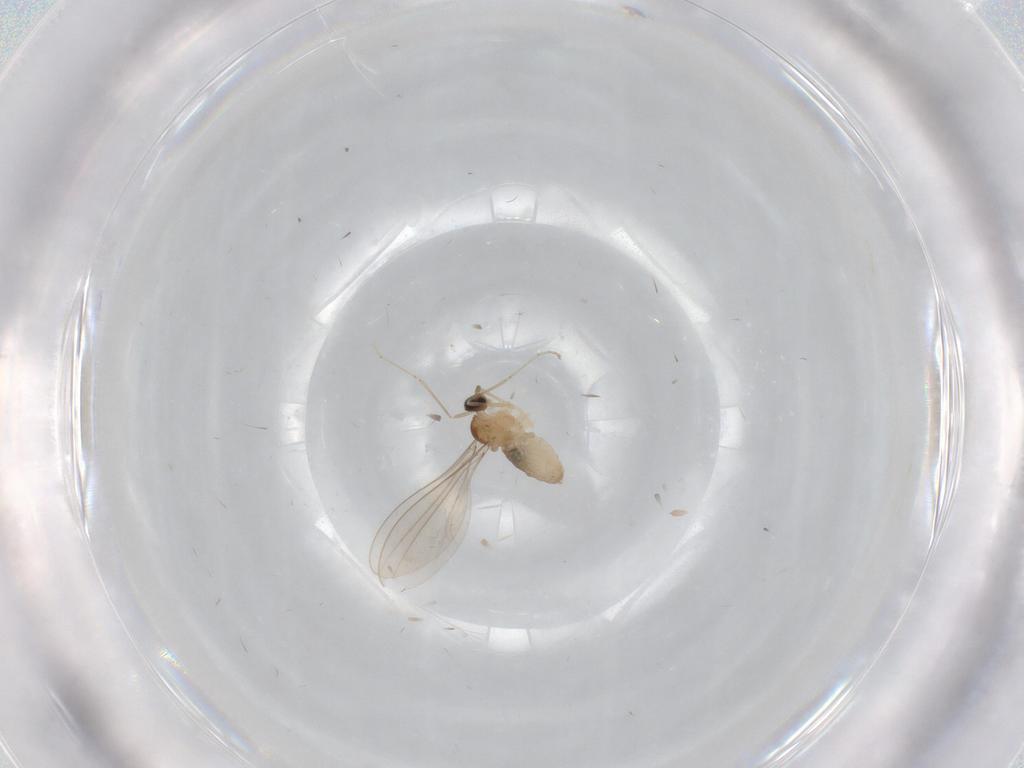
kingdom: Animalia
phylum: Arthropoda
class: Insecta
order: Diptera
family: Cecidomyiidae
